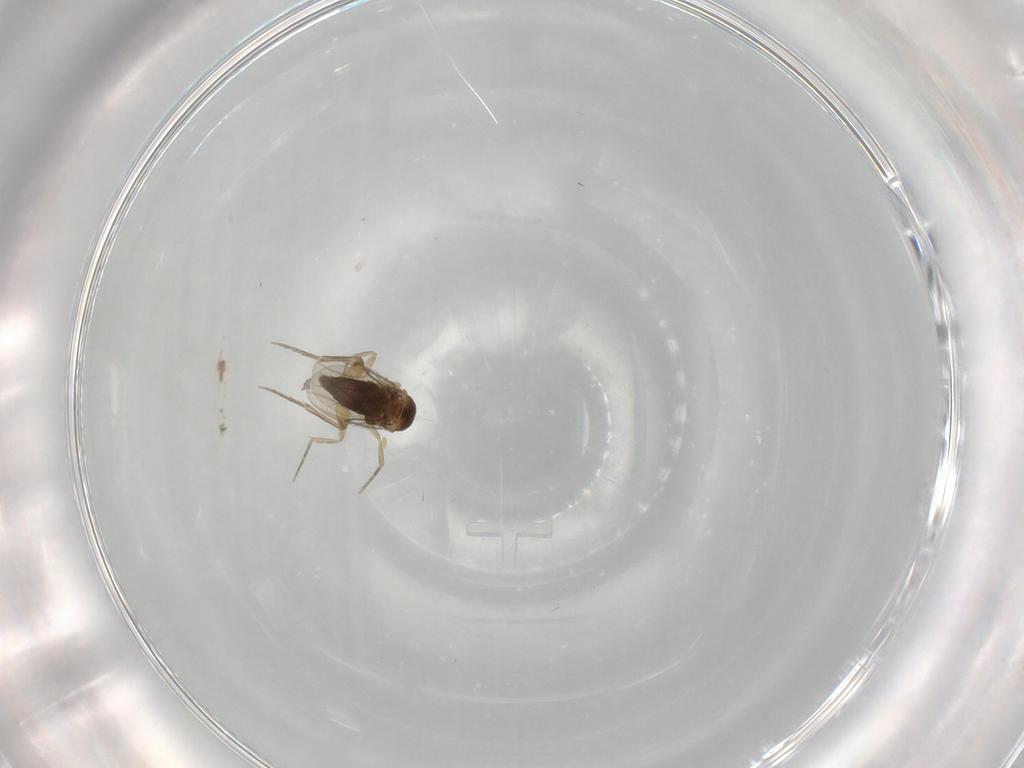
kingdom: Animalia
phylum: Arthropoda
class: Insecta
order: Diptera
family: Phoridae
